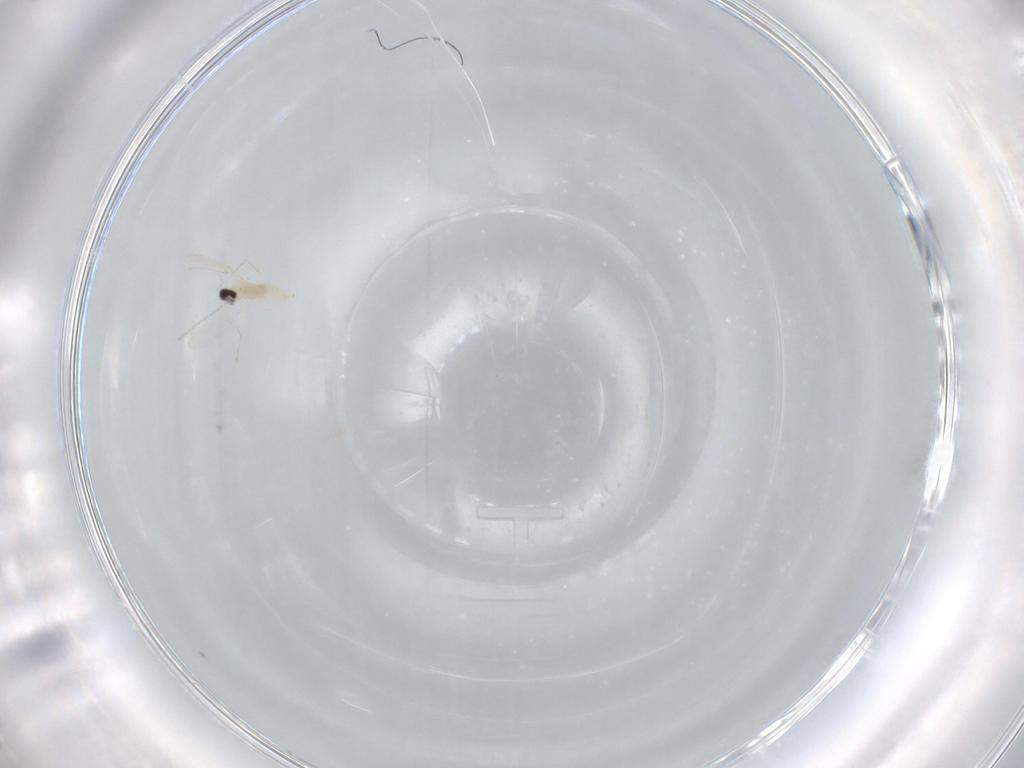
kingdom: Animalia
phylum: Arthropoda
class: Insecta
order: Diptera
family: Cecidomyiidae
